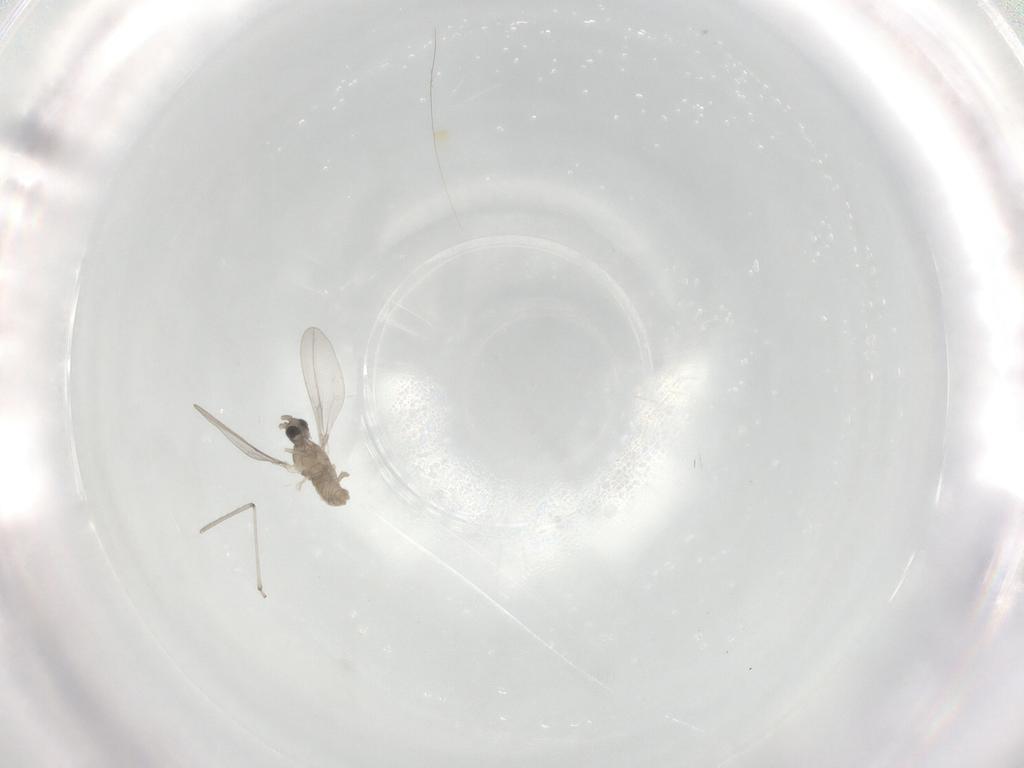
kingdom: Animalia
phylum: Arthropoda
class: Insecta
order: Diptera
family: Cecidomyiidae
